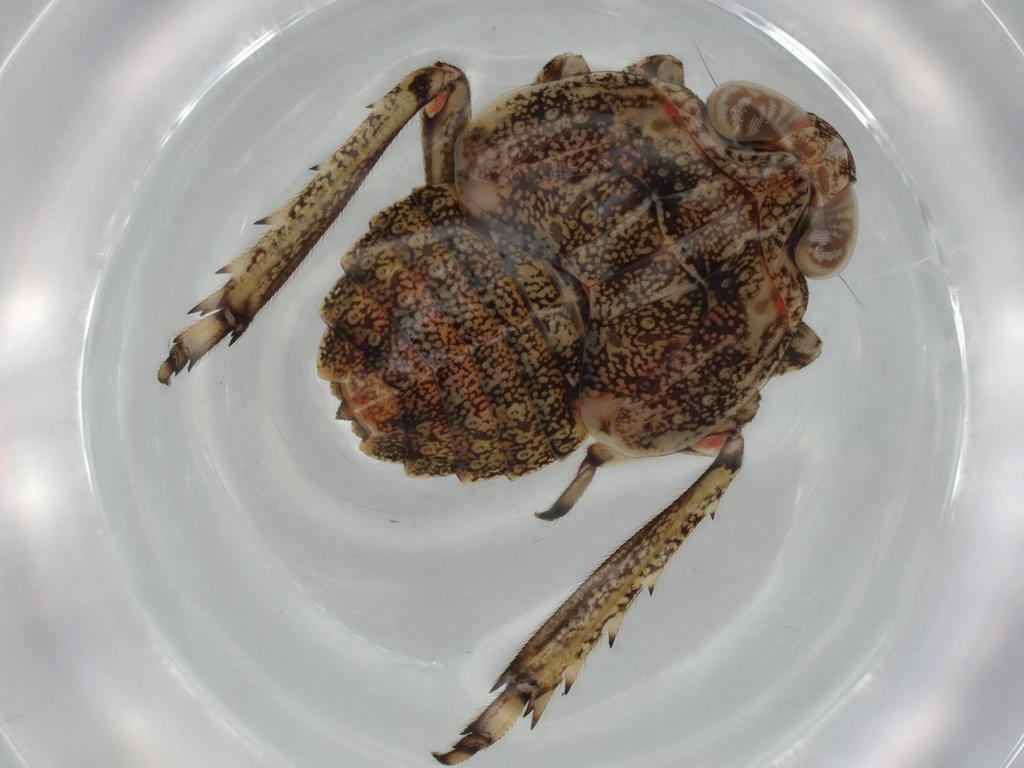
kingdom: Animalia
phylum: Arthropoda
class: Insecta
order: Hemiptera
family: Issidae
